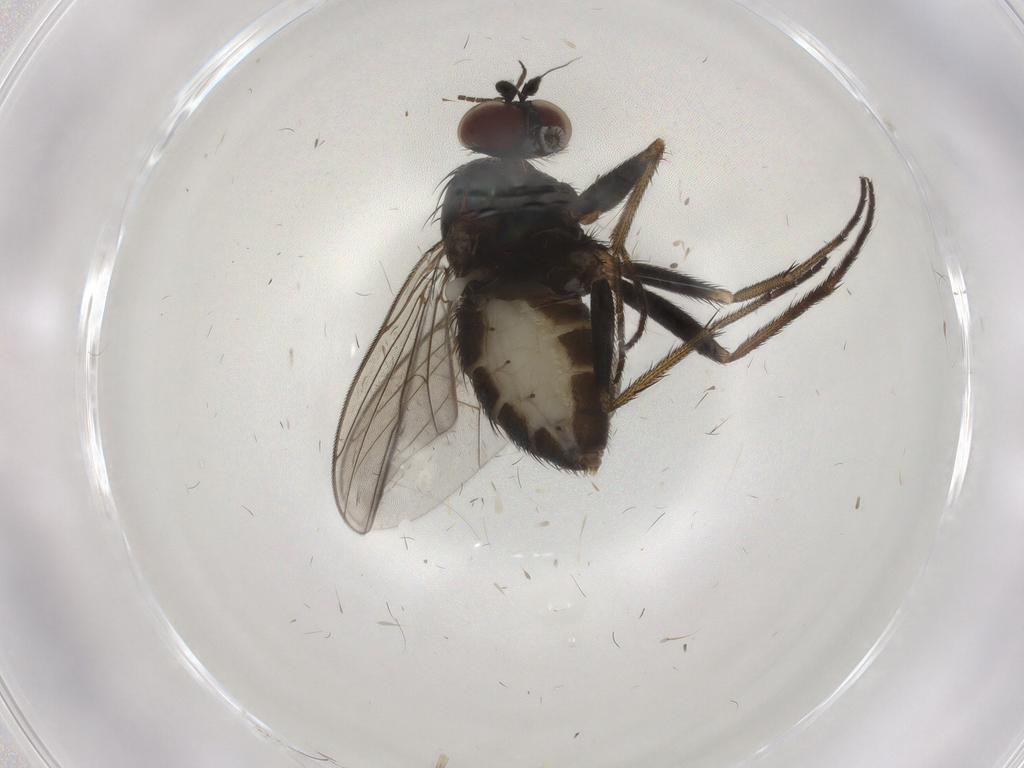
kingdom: Animalia
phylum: Arthropoda
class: Insecta
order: Diptera
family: Dolichopodidae
